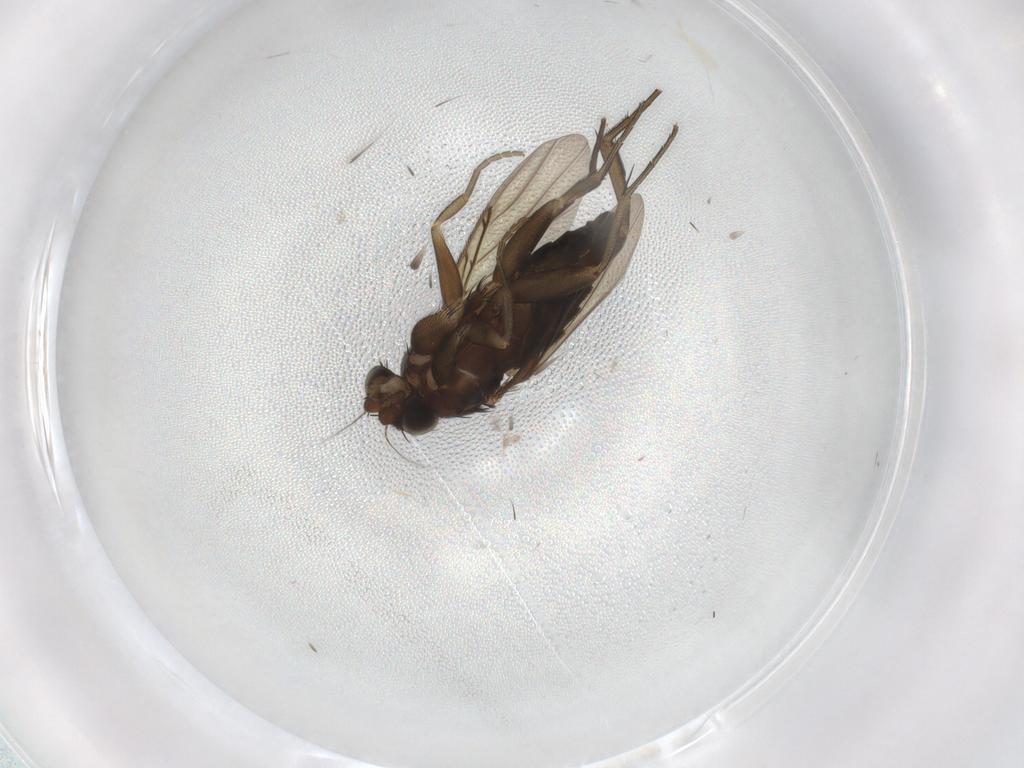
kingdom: Animalia
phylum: Arthropoda
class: Insecta
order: Diptera
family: Phoridae
